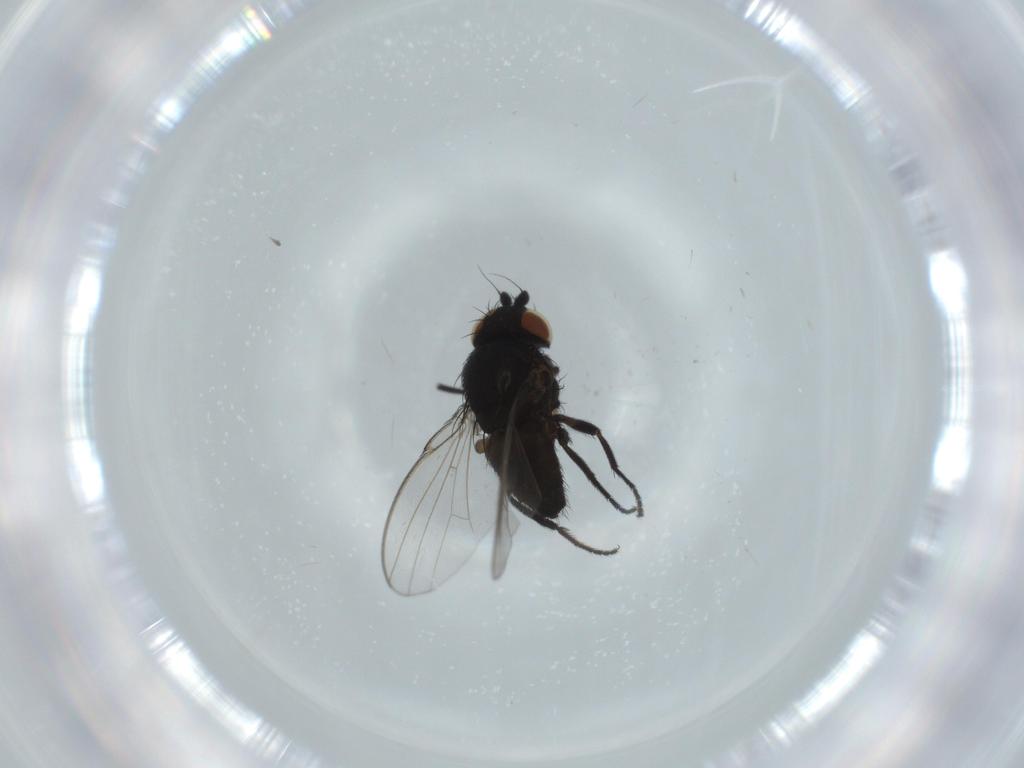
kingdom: Animalia
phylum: Arthropoda
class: Insecta
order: Diptera
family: Milichiidae
